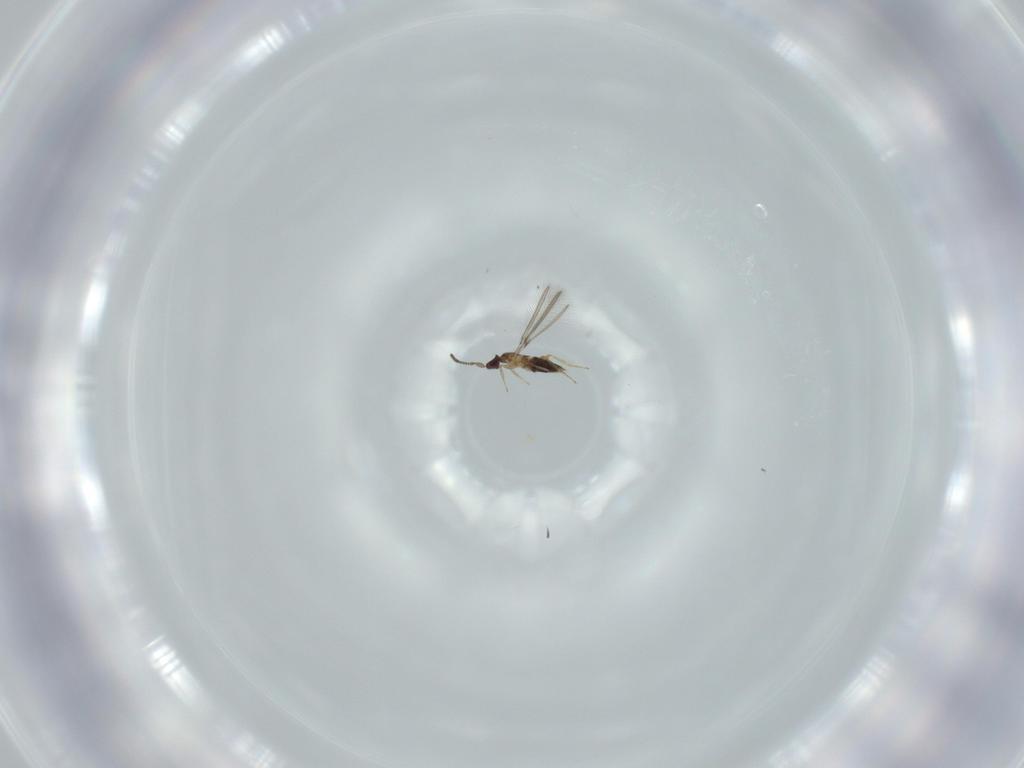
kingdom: Animalia
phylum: Arthropoda
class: Insecta
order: Hymenoptera
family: Mymaridae
